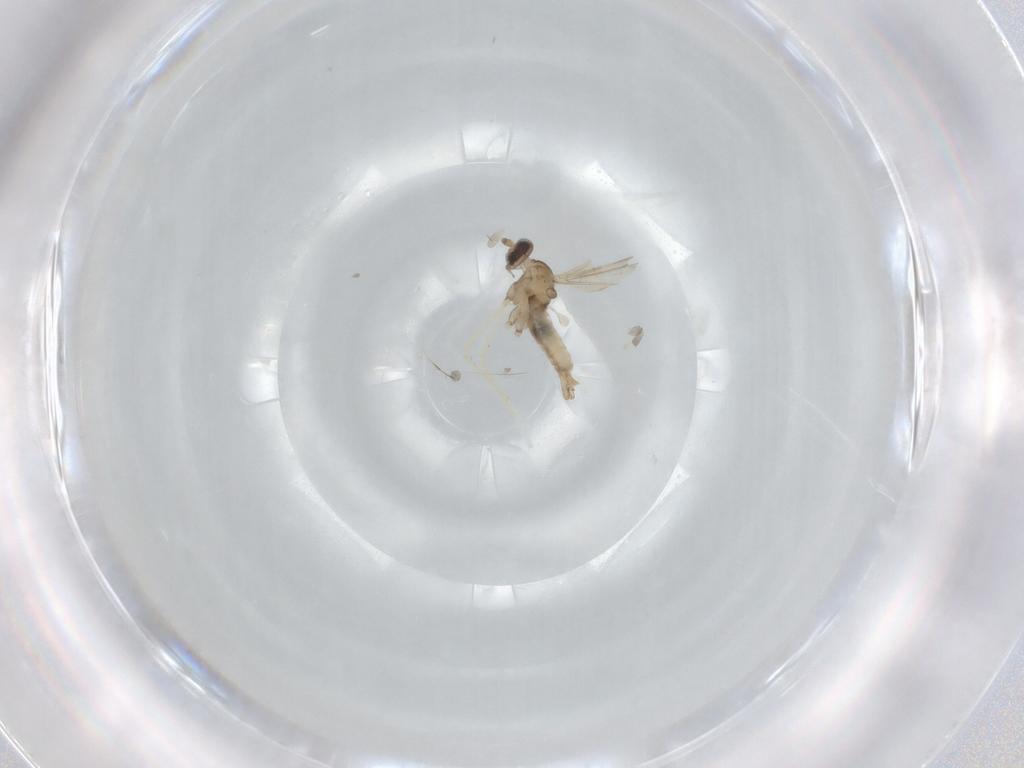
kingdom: Animalia
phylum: Arthropoda
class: Insecta
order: Diptera
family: Cecidomyiidae
